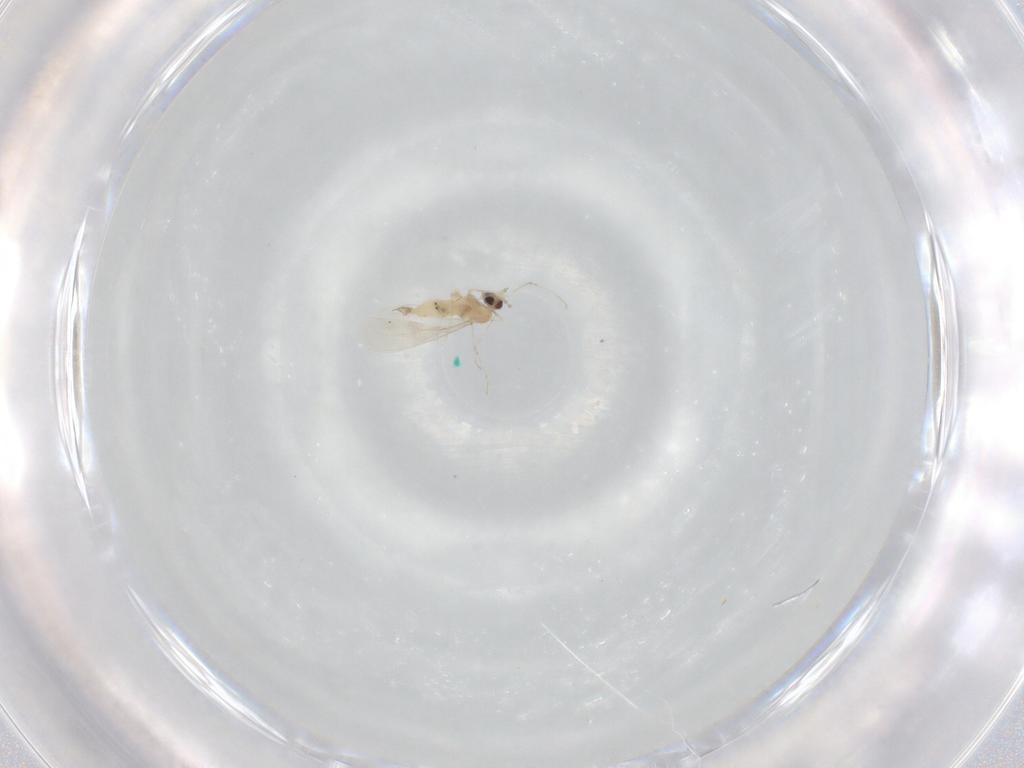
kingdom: Animalia
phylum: Arthropoda
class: Insecta
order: Diptera
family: Cecidomyiidae
